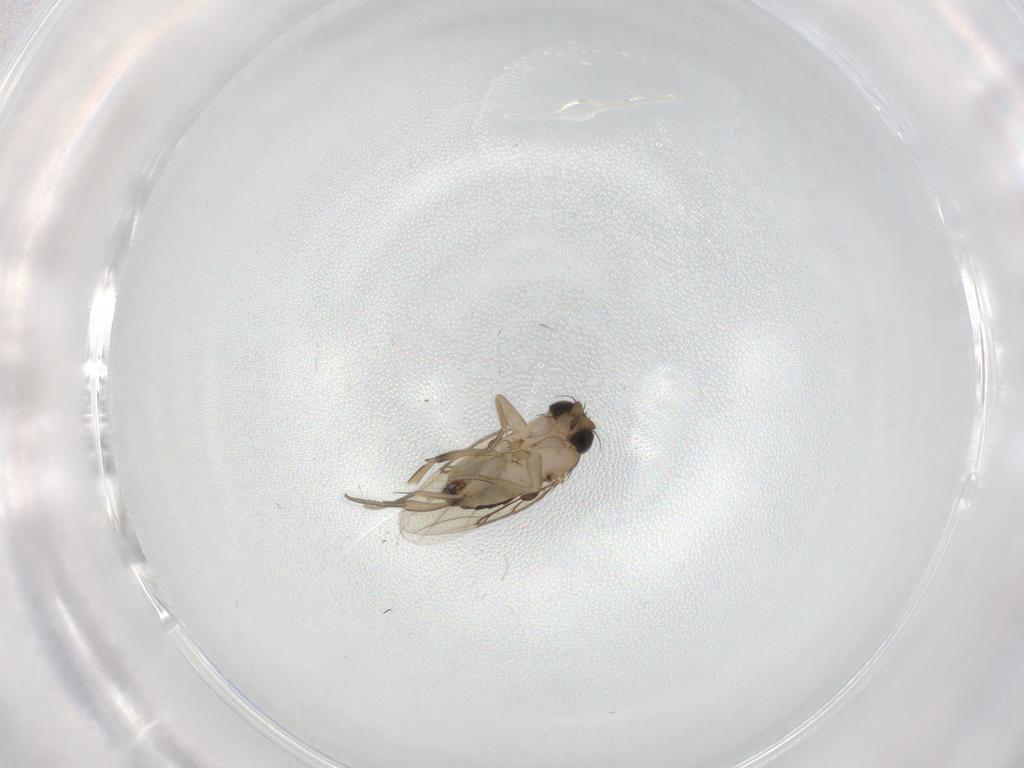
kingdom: Animalia
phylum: Arthropoda
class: Insecta
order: Diptera
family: Phoridae
